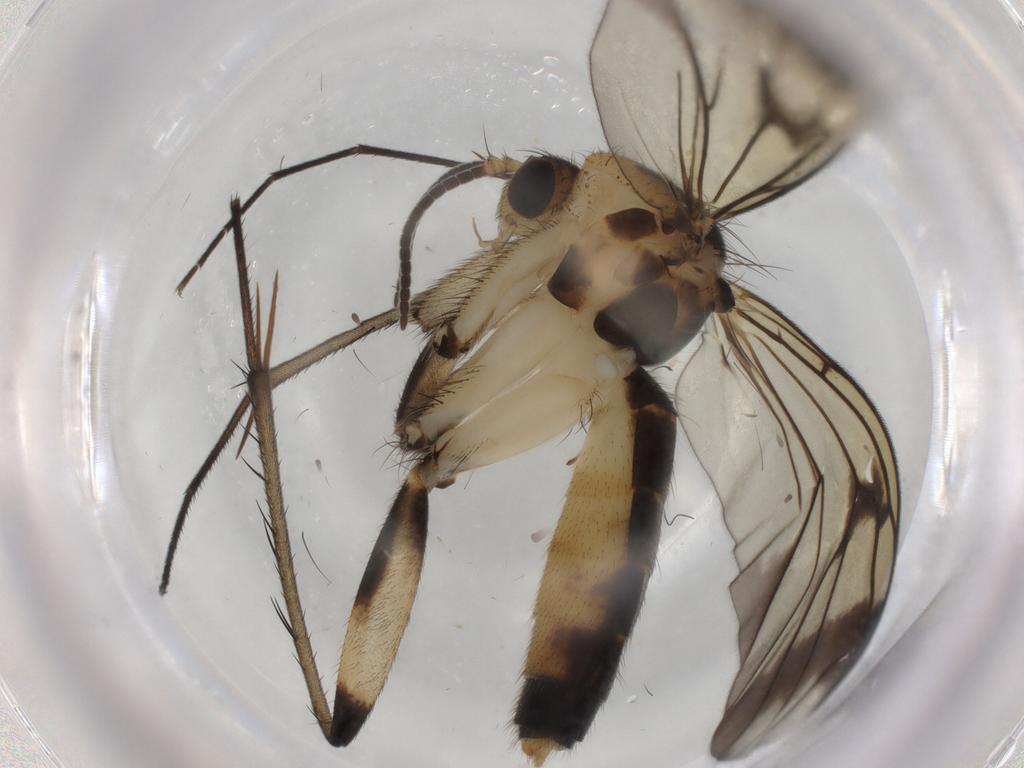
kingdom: Animalia
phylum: Arthropoda
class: Insecta
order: Diptera
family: Mycetophilidae
